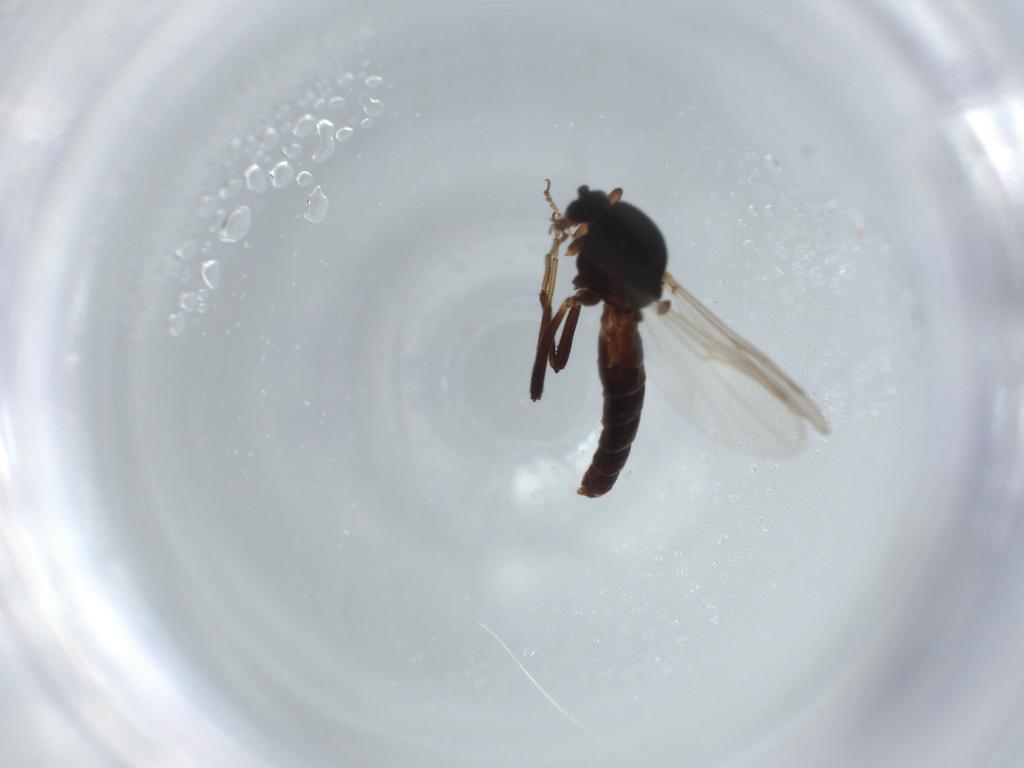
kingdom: Animalia
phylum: Arthropoda
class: Insecta
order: Diptera
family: Ceratopogonidae
